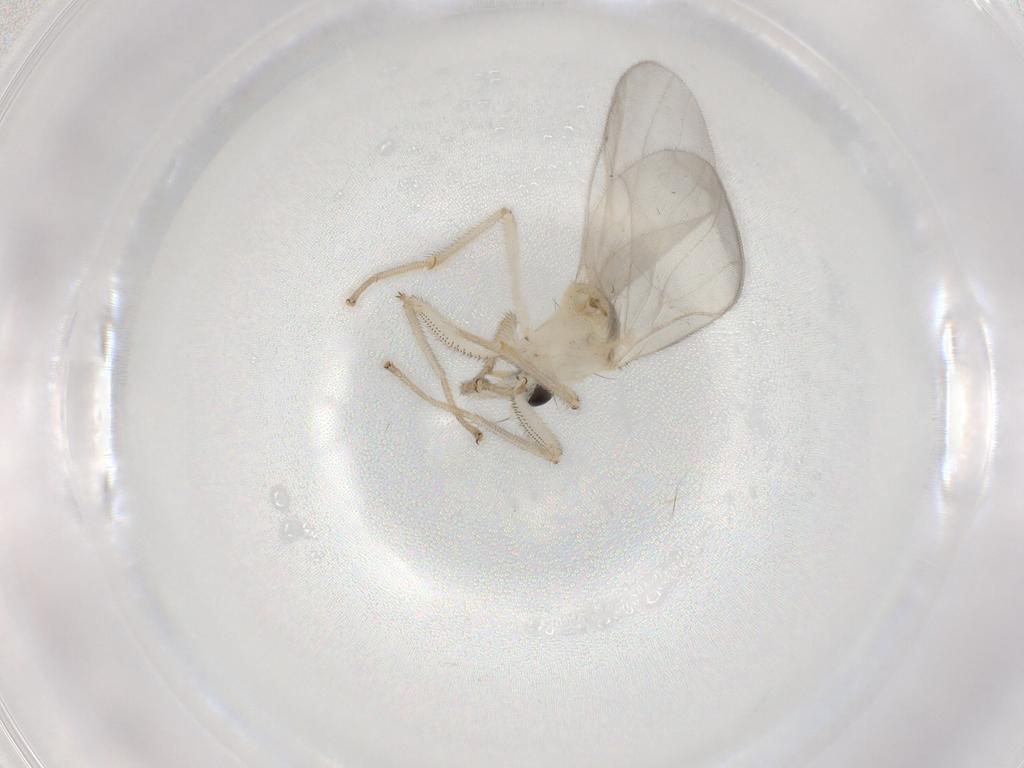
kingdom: Animalia
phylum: Arthropoda
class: Insecta
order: Diptera
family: Hybotidae
